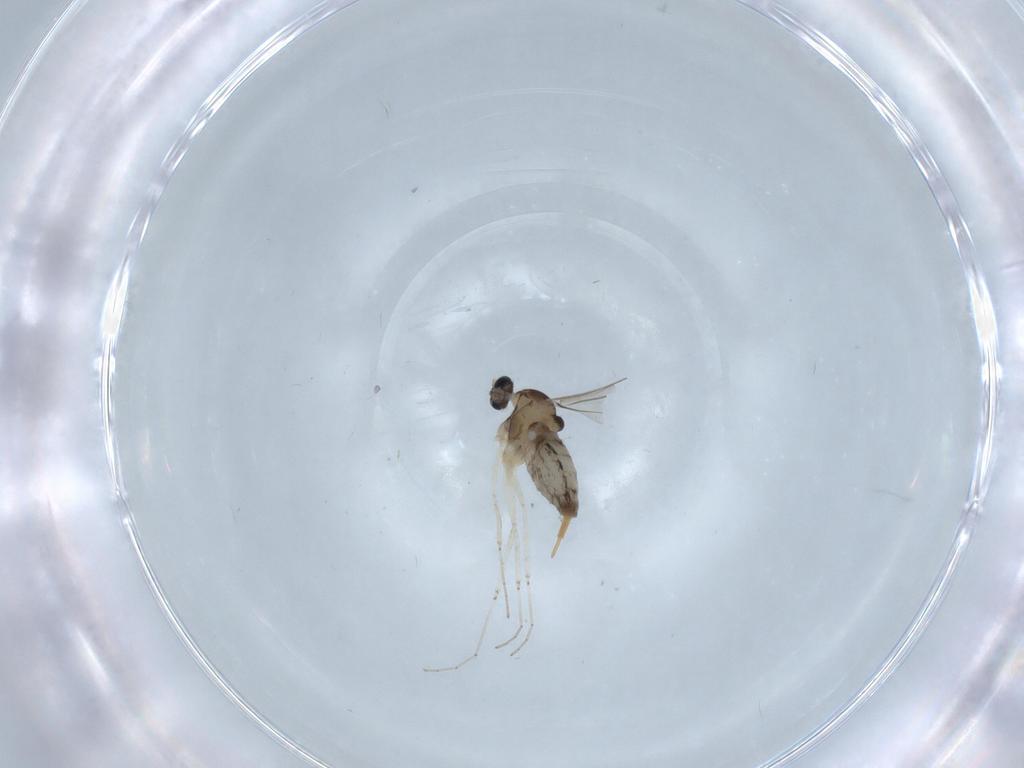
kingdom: Animalia
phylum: Arthropoda
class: Insecta
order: Diptera
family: Cecidomyiidae
